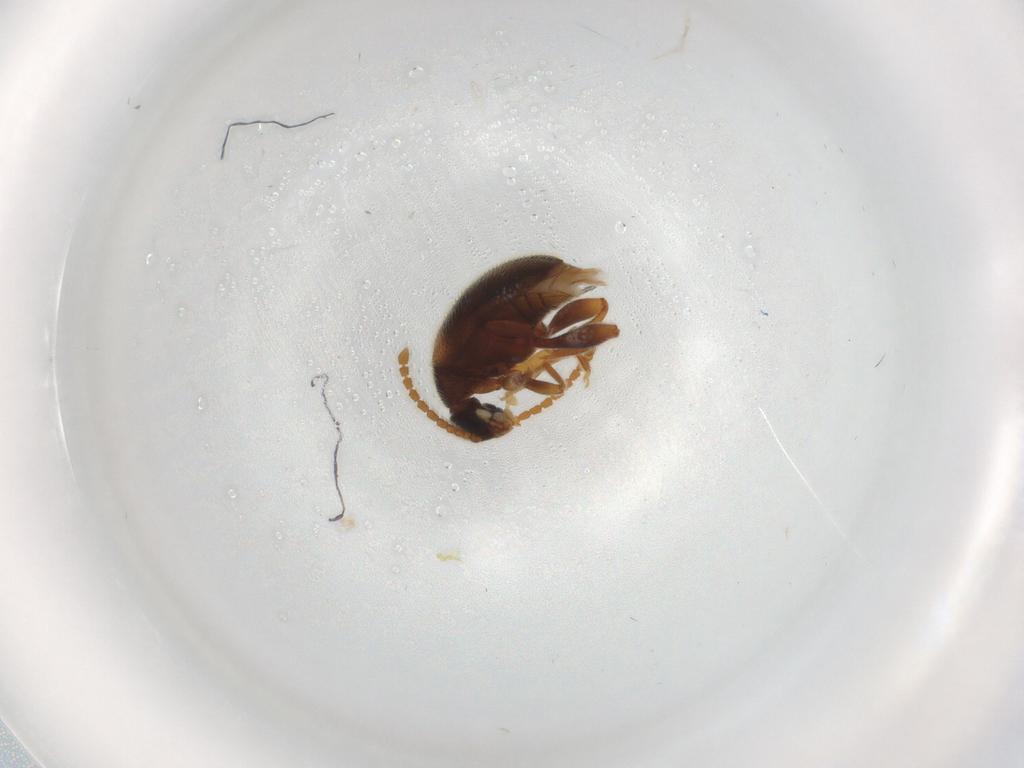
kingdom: Animalia
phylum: Arthropoda
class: Insecta
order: Coleoptera
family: Aderidae
